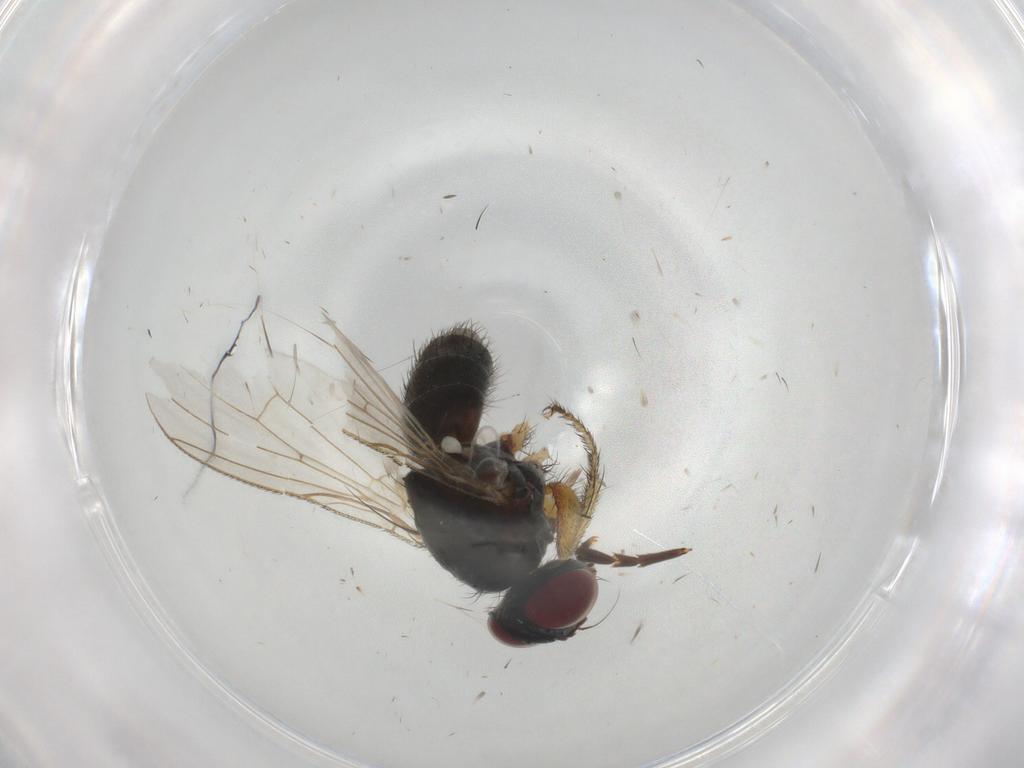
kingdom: Animalia
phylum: Arthropoda
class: Insecta
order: Diptera
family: Muscidae
